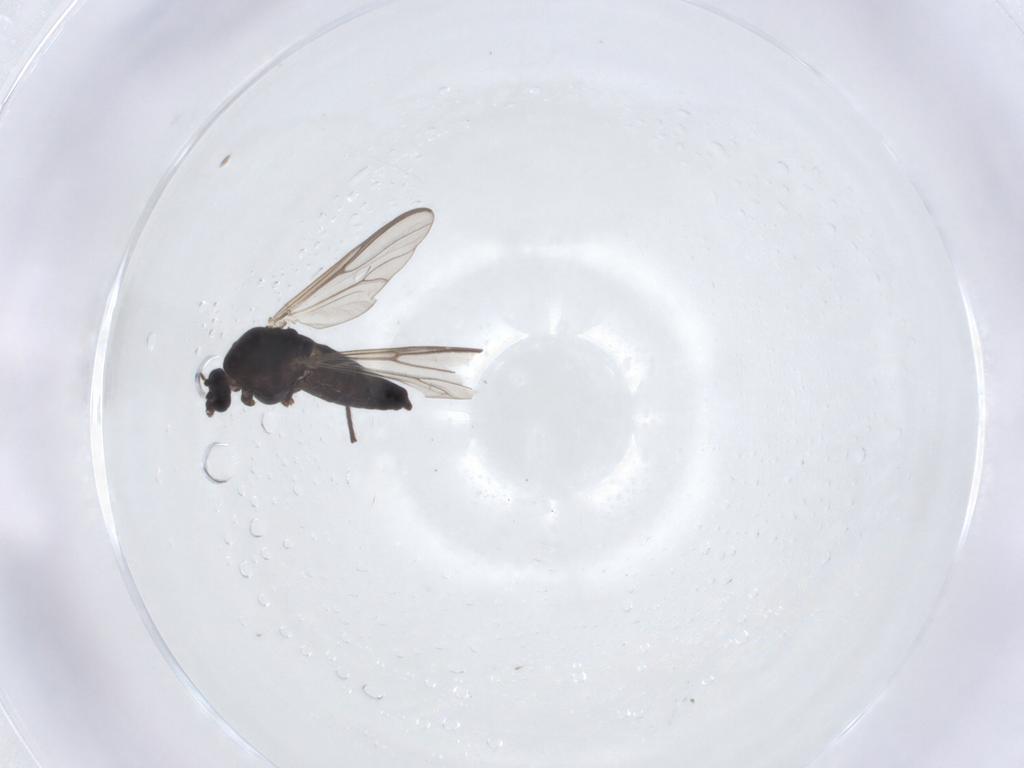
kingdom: Animalia
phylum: Arthropoda
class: Insecta
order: Diptera
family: Chironomidae
